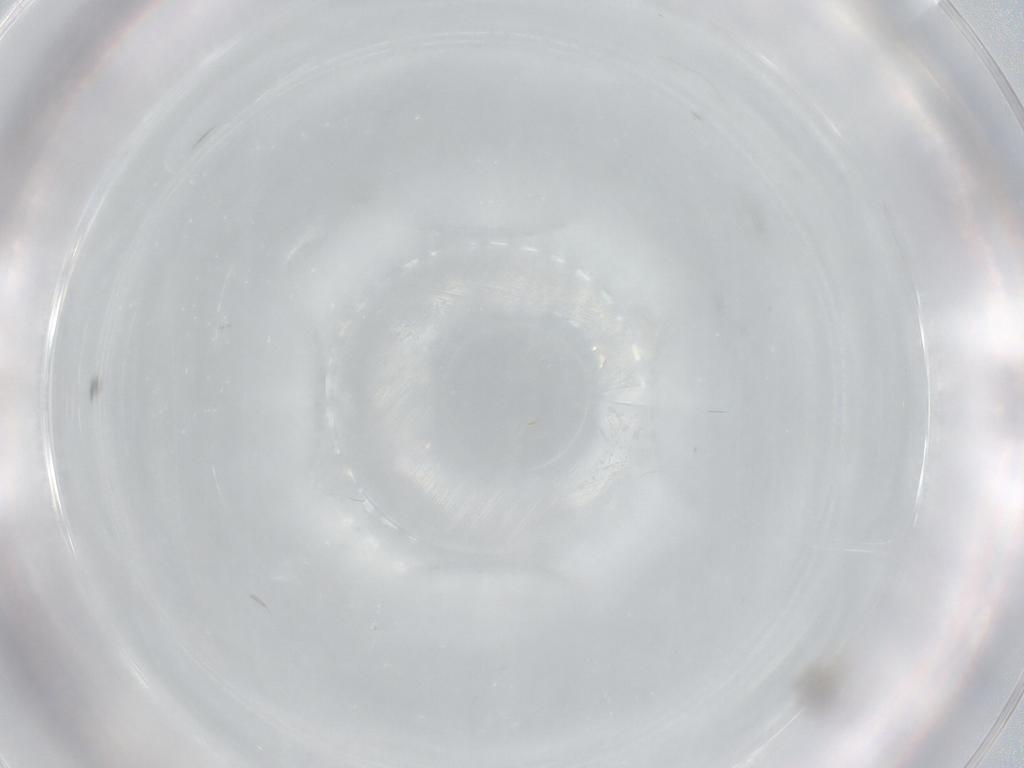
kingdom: Animalia
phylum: Arthropoda
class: Insecta
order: Diptera
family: Cecidomyiidae
